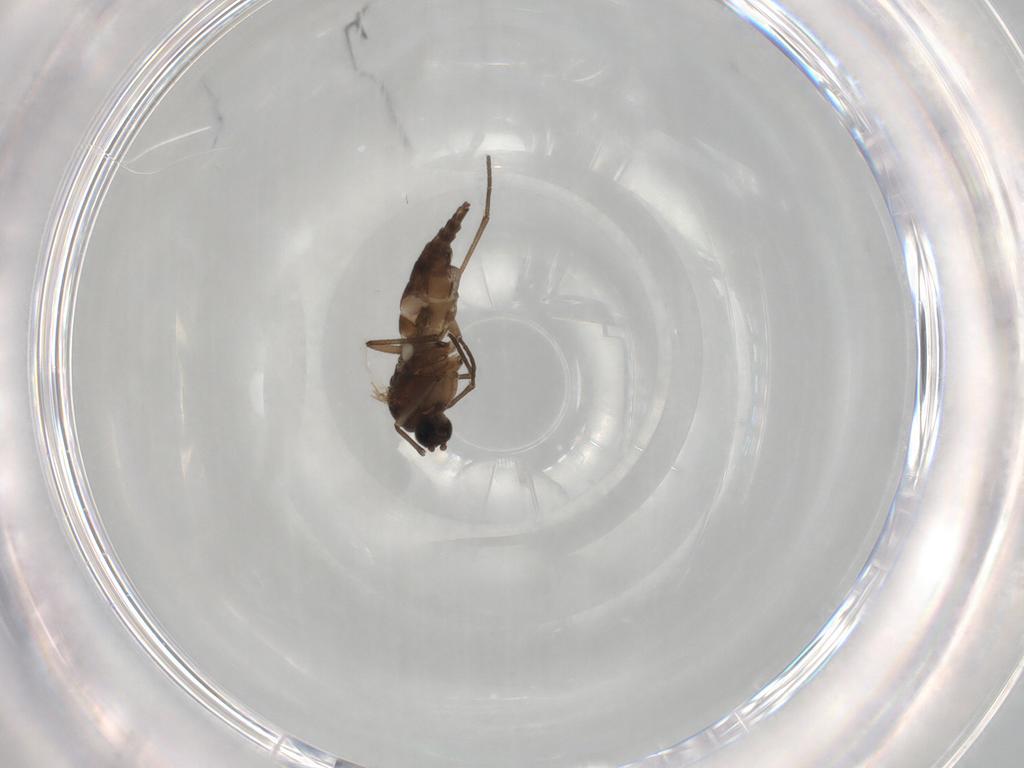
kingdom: Animalia
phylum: Arthropoda
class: Insecta
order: Diptera
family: Sciaridae
